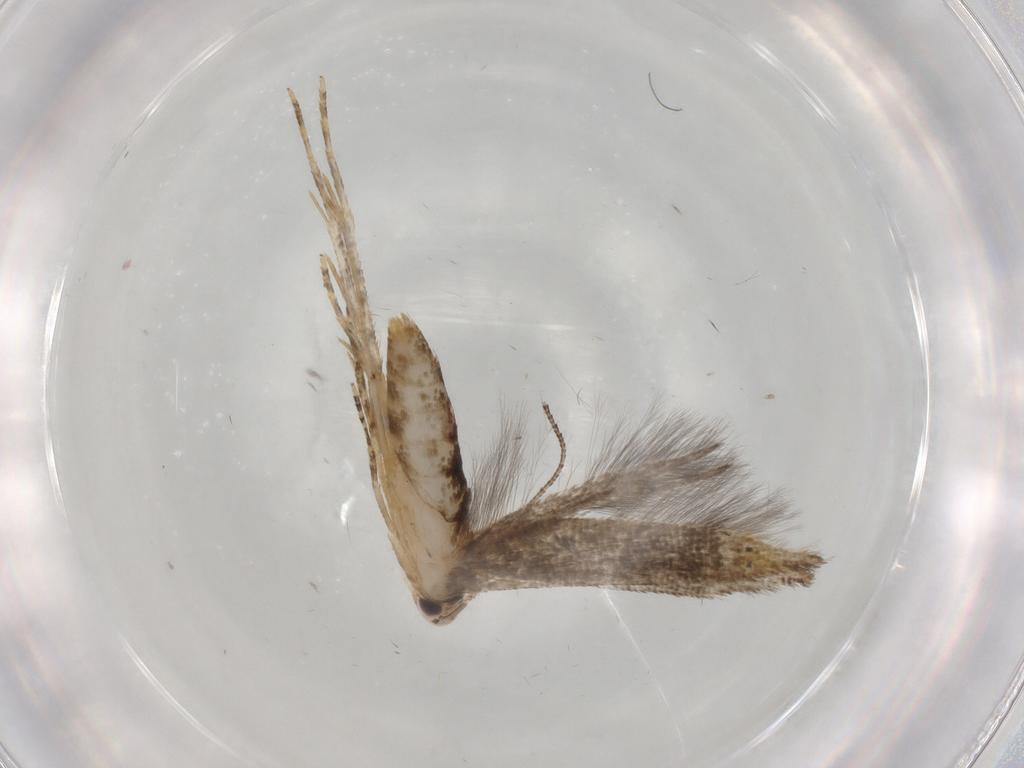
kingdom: Animalia
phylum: Arthropoda
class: Insecta
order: Lepidoptera
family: Cosmopterigidae
